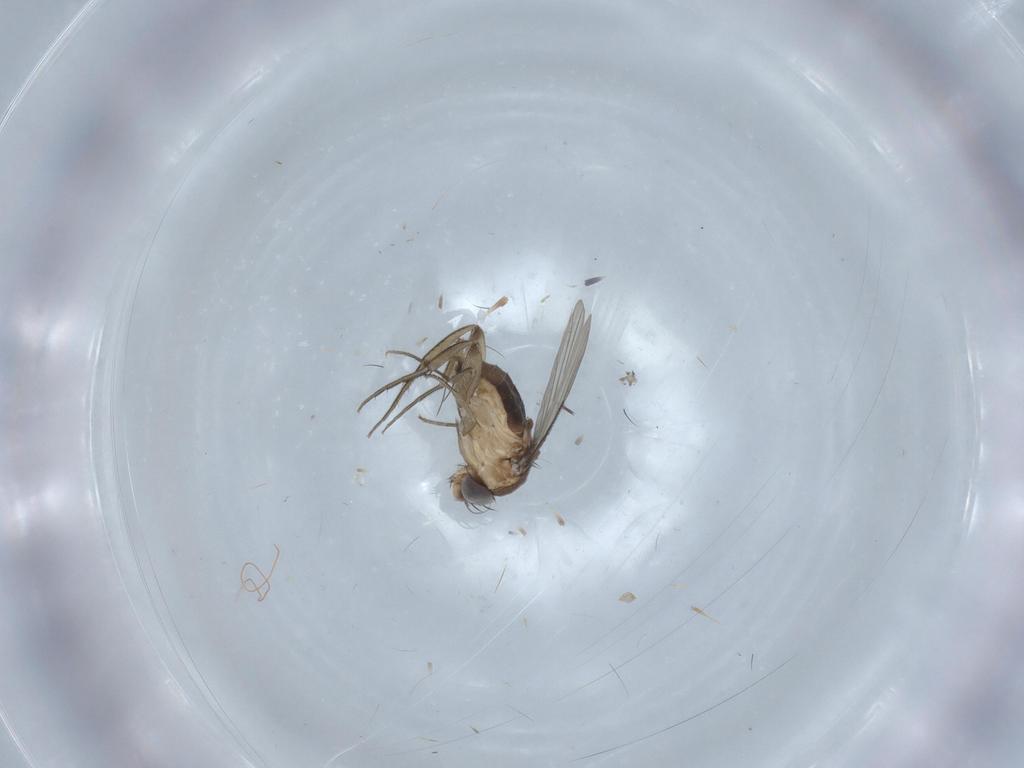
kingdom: Animalia
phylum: Arthropoda
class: Insecta
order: Diptera
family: Phoridae
